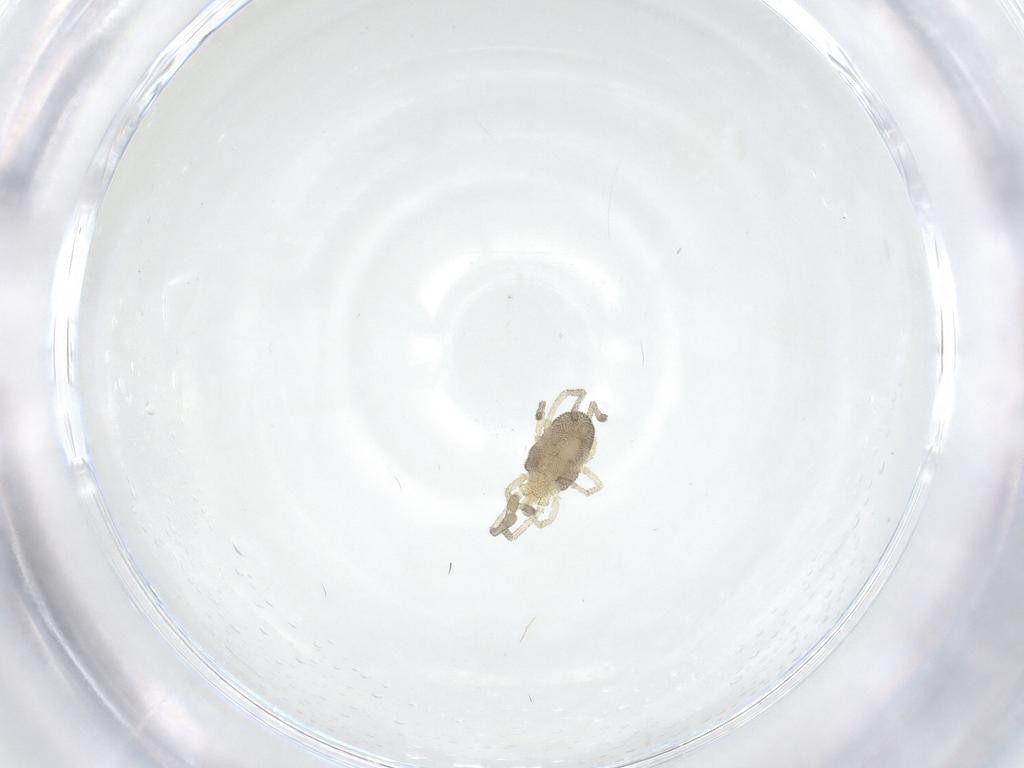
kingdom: Animalia
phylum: Arthropoda
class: Arachnida
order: Trombidiformes
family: Smarididae
